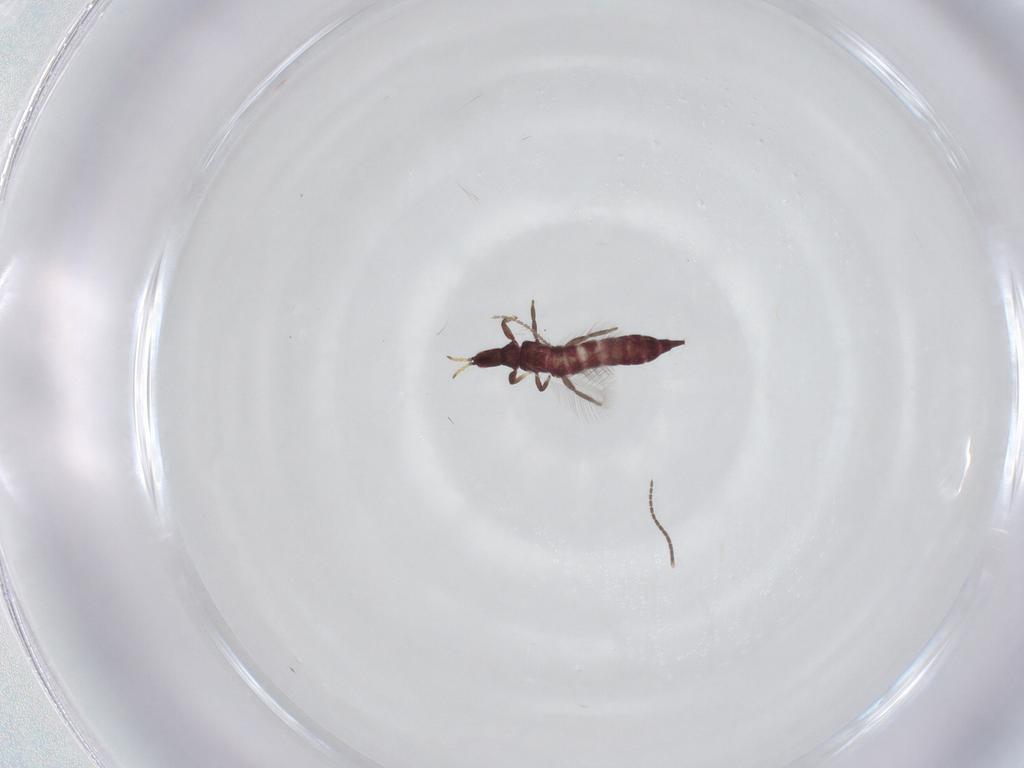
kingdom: Animalia
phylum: Arthropoda
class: Insecta
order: Thysanoptera
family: Phlaeothripidae
